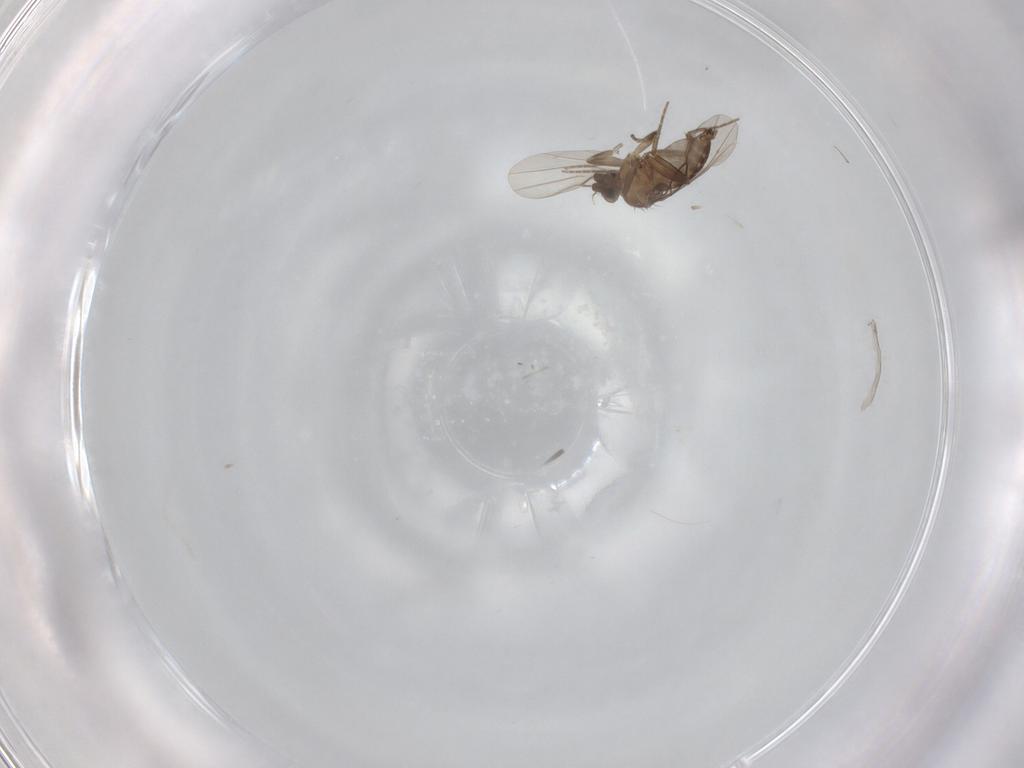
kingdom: Animalia
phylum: Arthropoda
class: Insecta
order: Diptera
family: Phoridae
